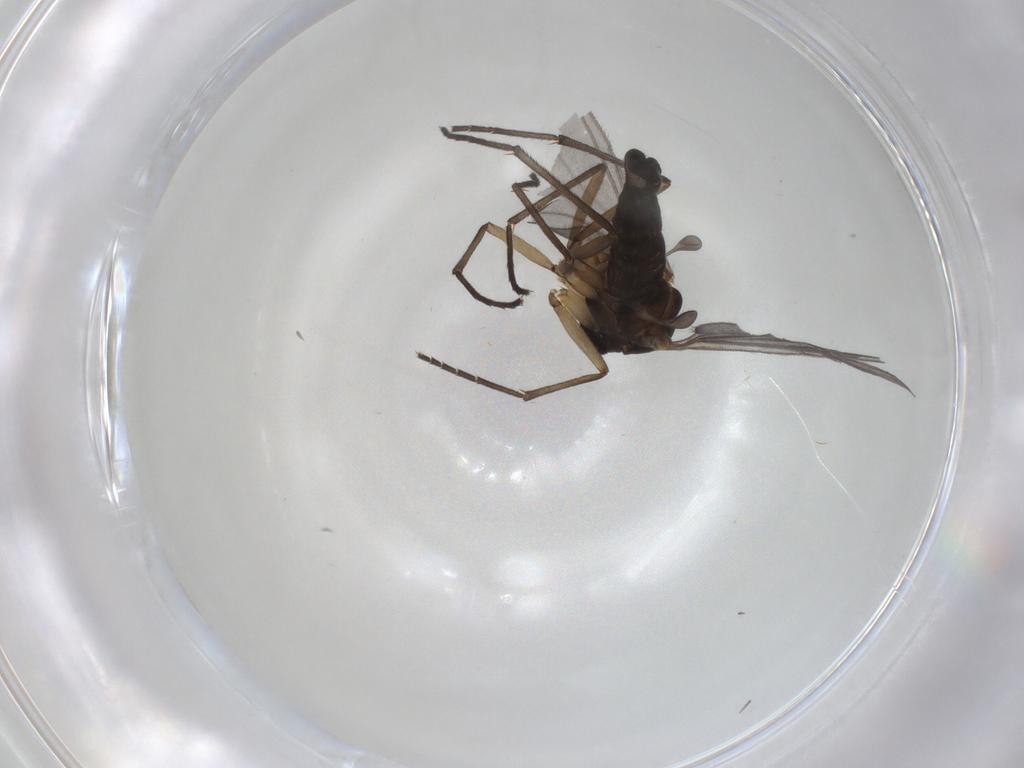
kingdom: Animalia
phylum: Arthropoda
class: Insecta
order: Diptera
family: Sciaridae
